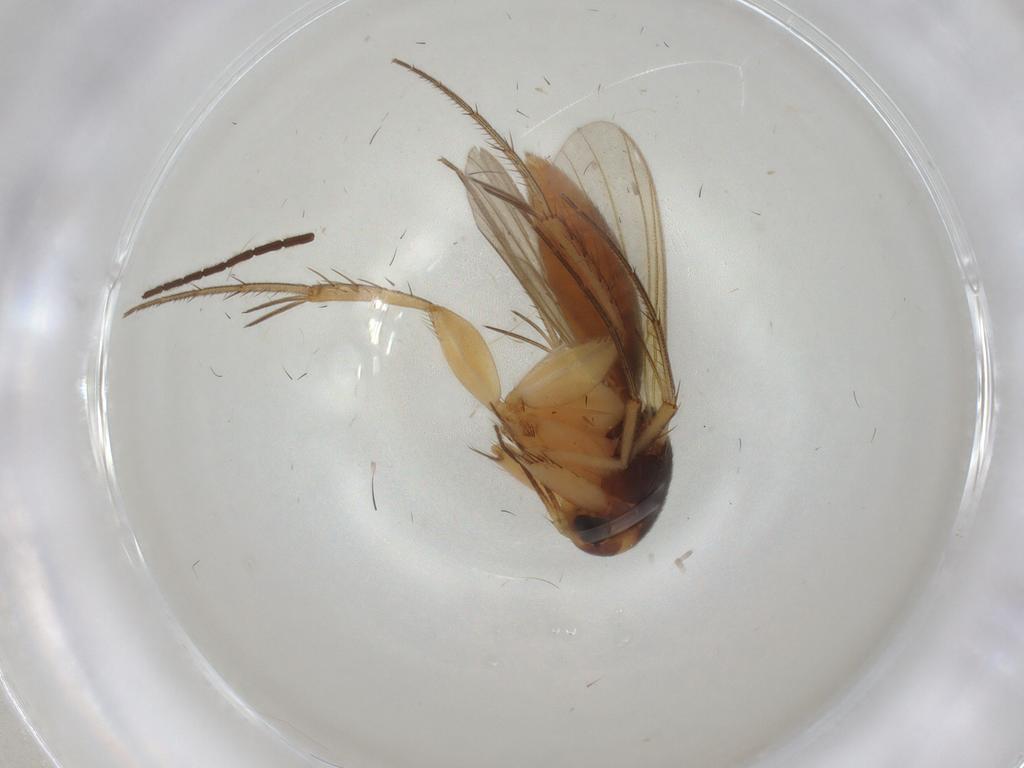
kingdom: Animalia
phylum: Arthropoda
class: Insecta
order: Diptera
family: Sciaridae
